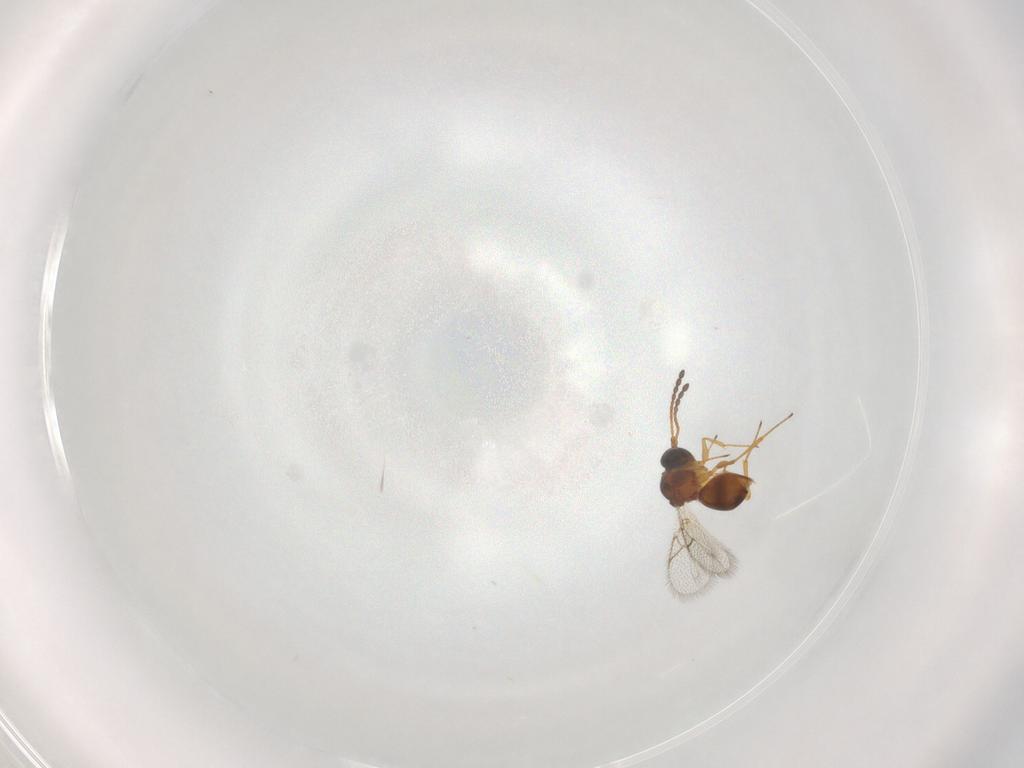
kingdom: Animalia
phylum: Arthropoda
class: Insecta
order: Hymenoptera
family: Figitidae
